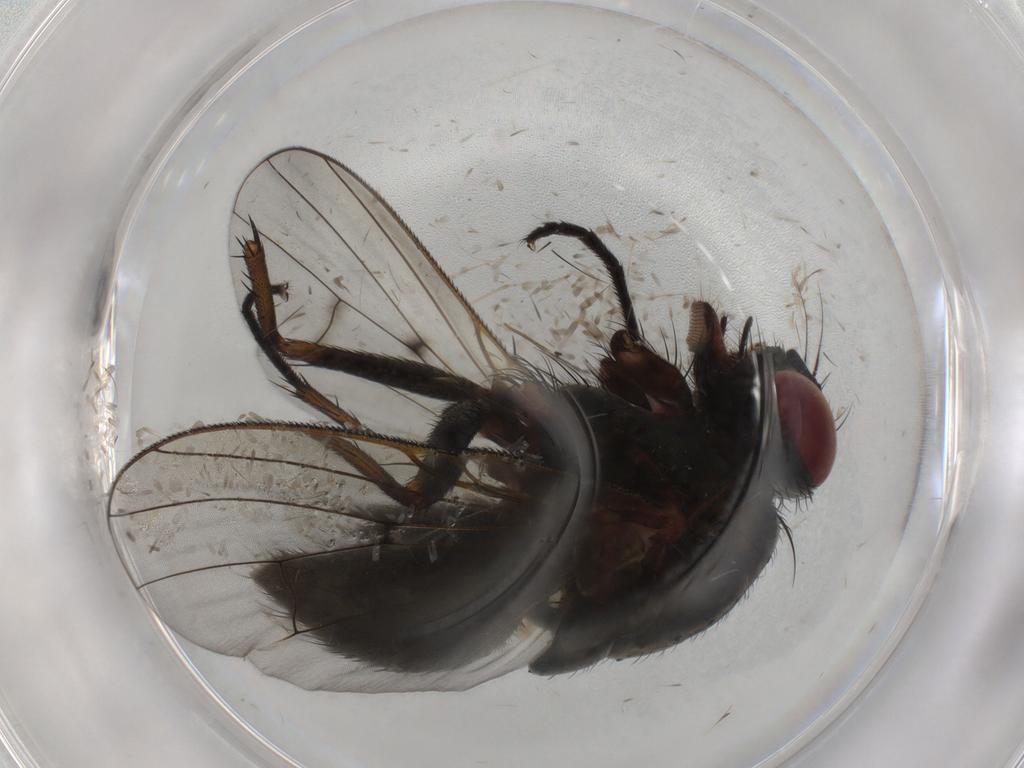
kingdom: Animalia
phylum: Arthropoda
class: Insecta
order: Diptera
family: Muscidae
